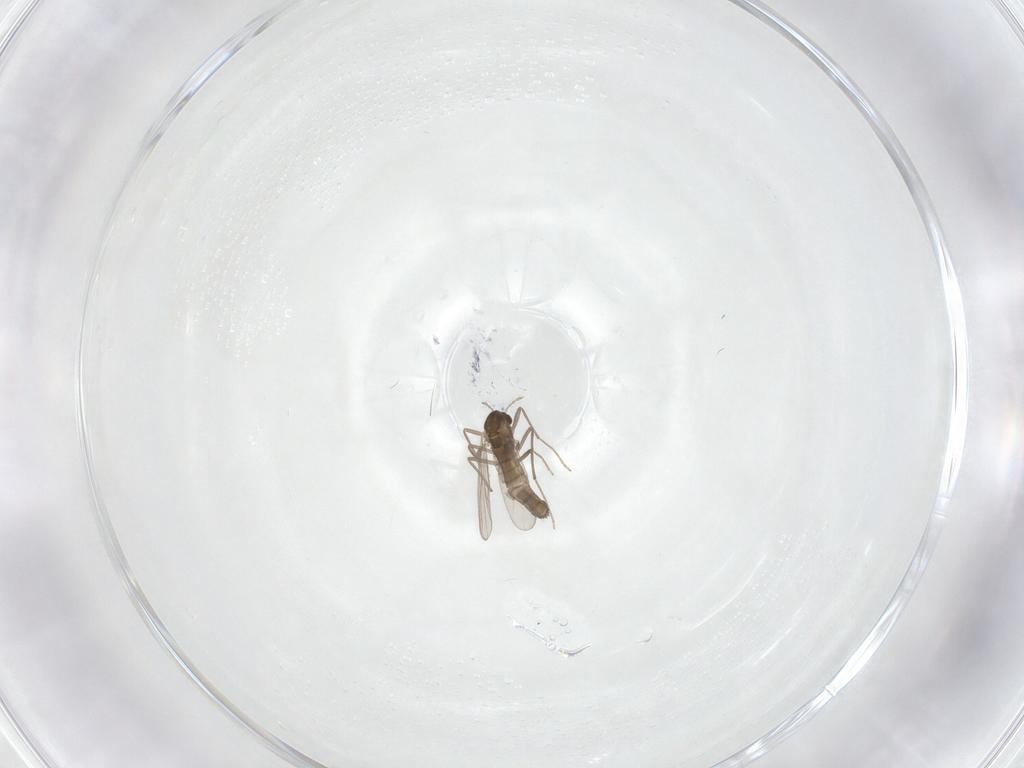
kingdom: Animalia
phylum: Arthropoda
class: Insecta
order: Diptera
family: Chironomidae
